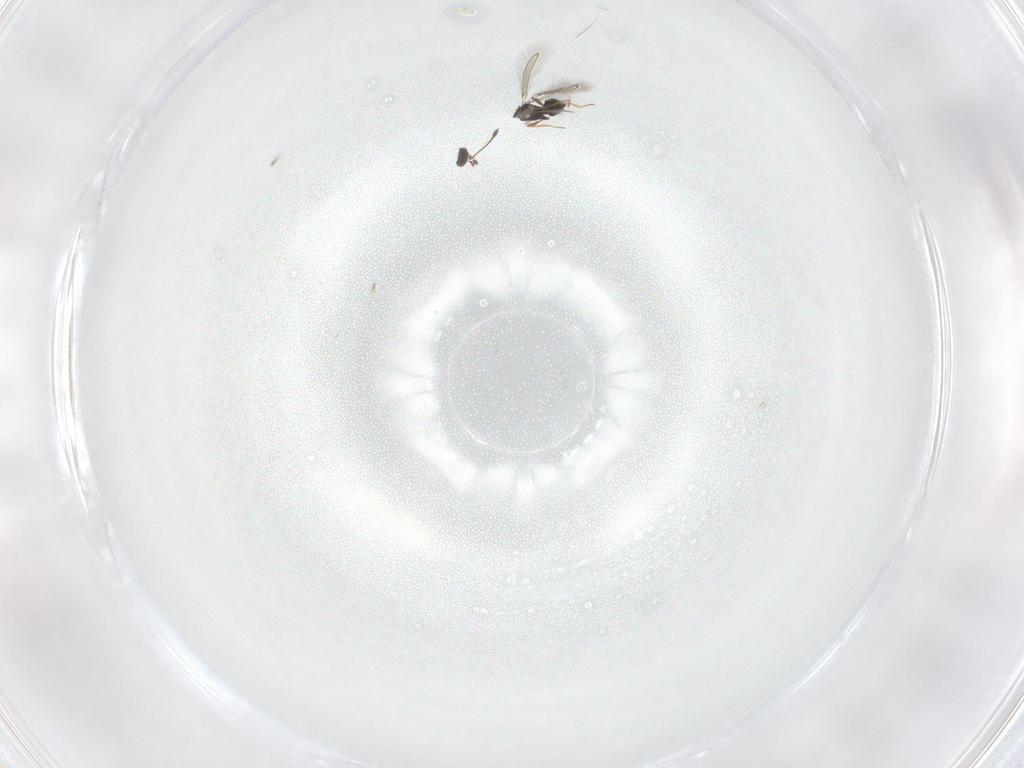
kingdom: Animalia
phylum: Arthropoda
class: Insecta
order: Hymenoptera
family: Mymaridae
